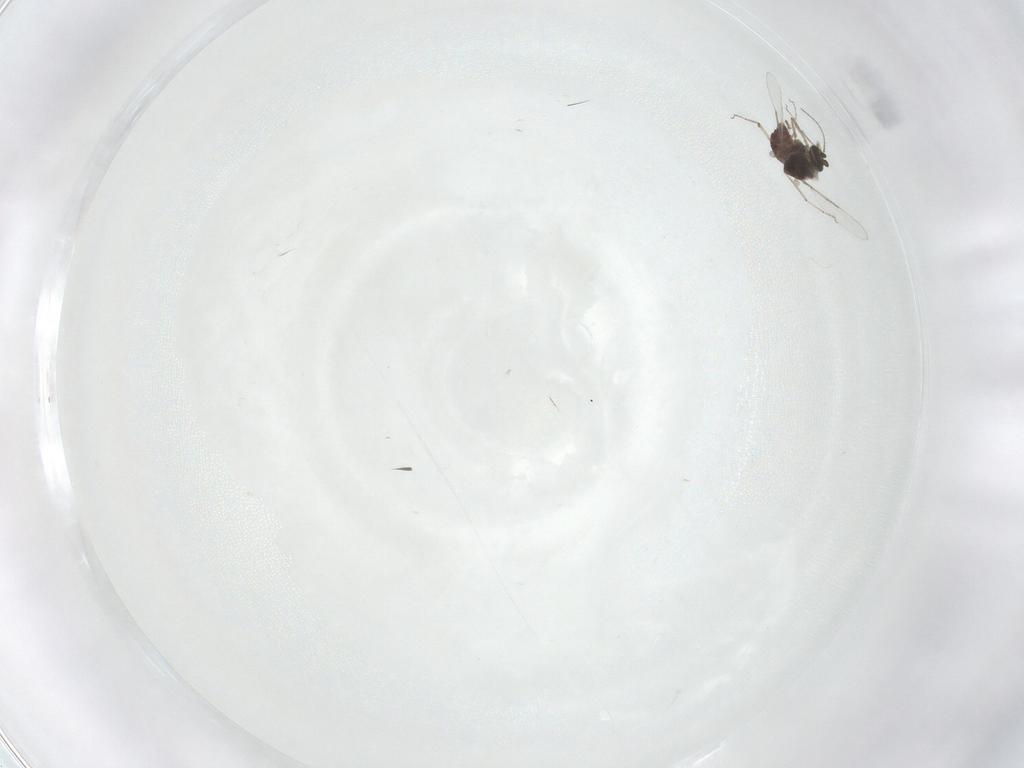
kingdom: Animalia
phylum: Arthropoda
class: Insecta
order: Diptera
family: Ceratopogonidae
